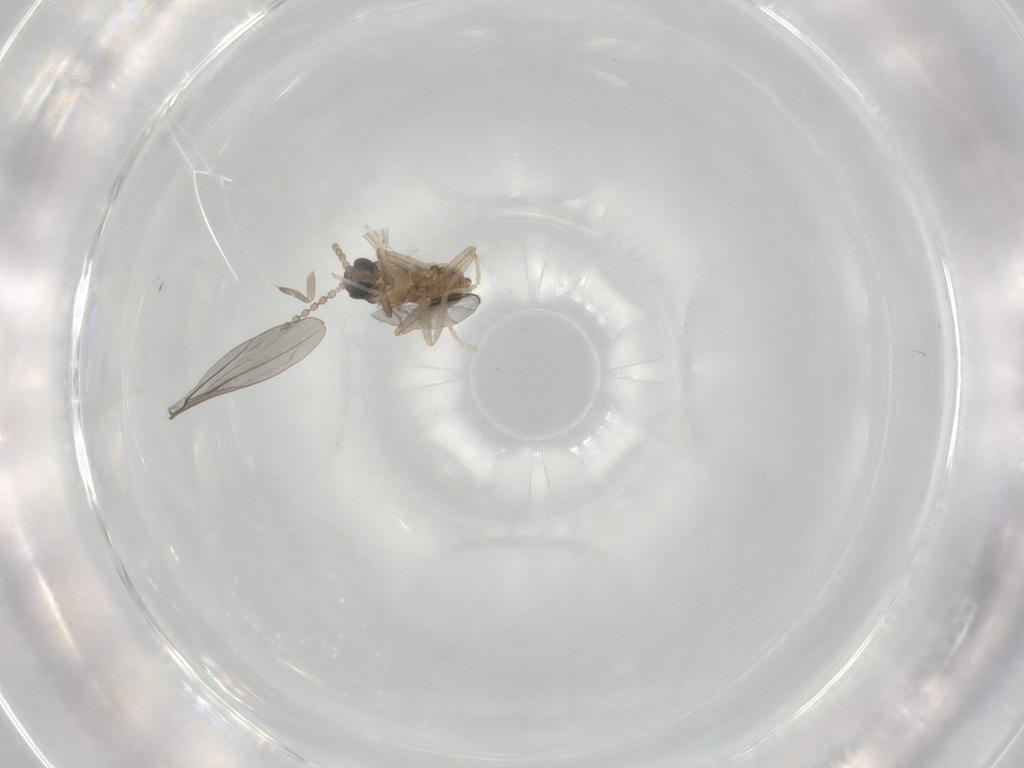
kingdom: Animalia
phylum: Arthropoda
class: Insecta
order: Diptera
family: Cecidomyiidae
